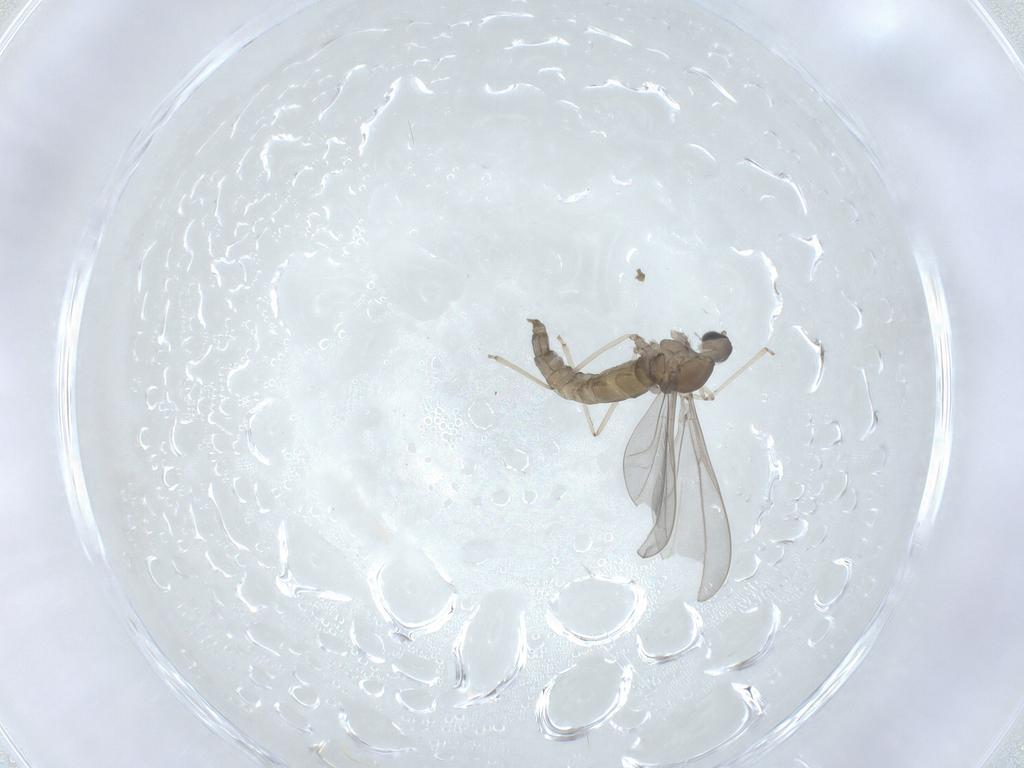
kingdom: Animalia
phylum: Arthropoda
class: Insecta
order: Diptera
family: Cecidomyiidae
